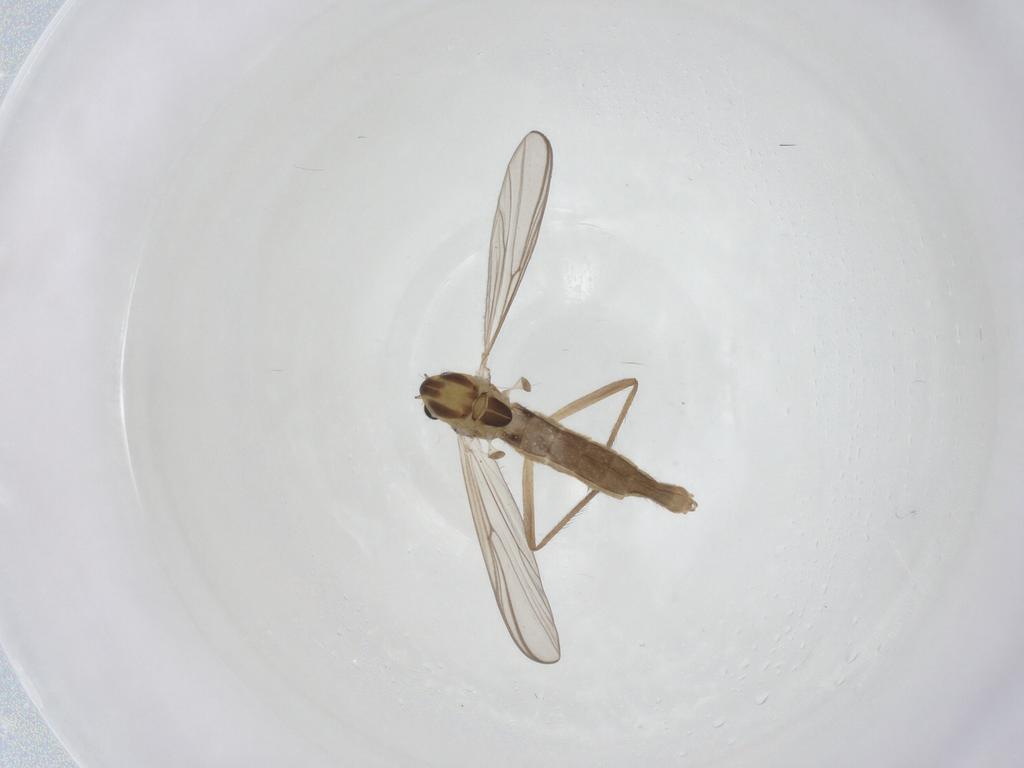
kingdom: Animalia
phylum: Arthropoda
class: Insecta
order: Diptera
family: Chironomidae
